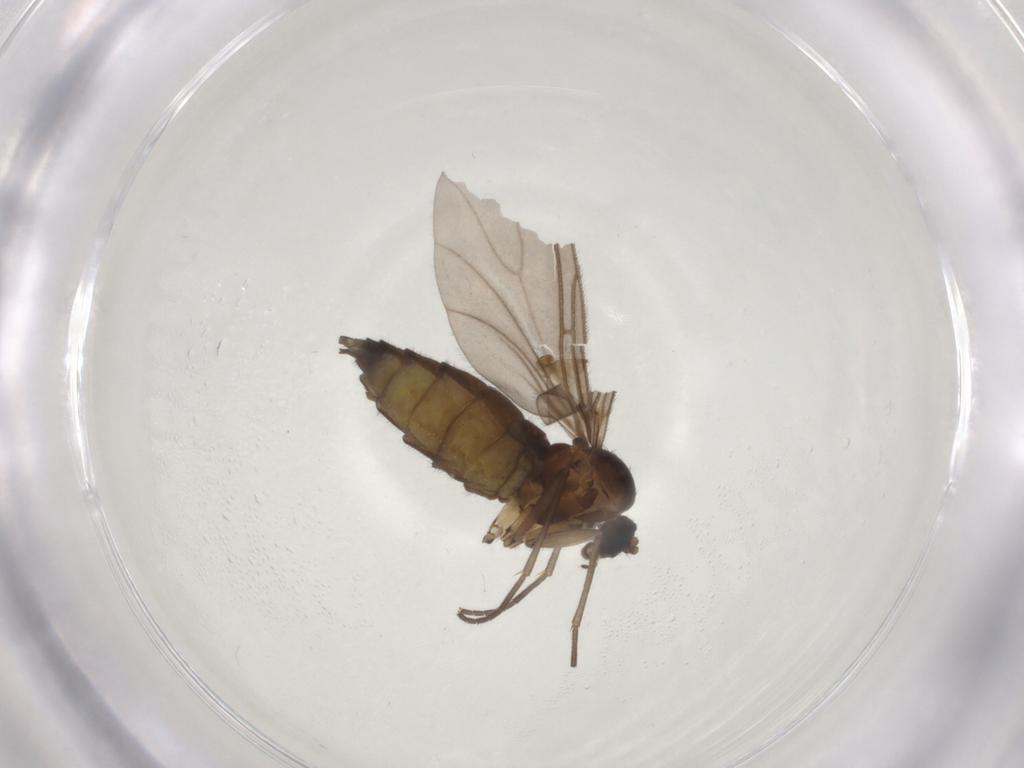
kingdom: Animalia
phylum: Arthropoda
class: Insecta
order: Diptera
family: Sciaridae
